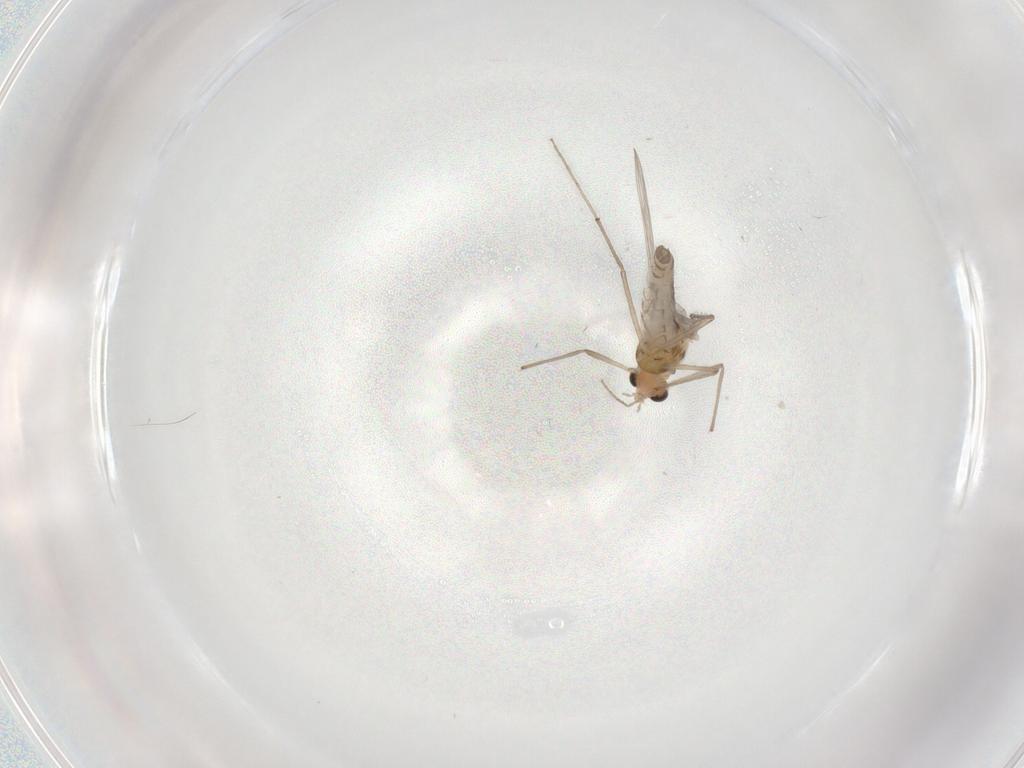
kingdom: Animalia
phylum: Arthropoda
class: Insecta
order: Diptera
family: Chironomidae
